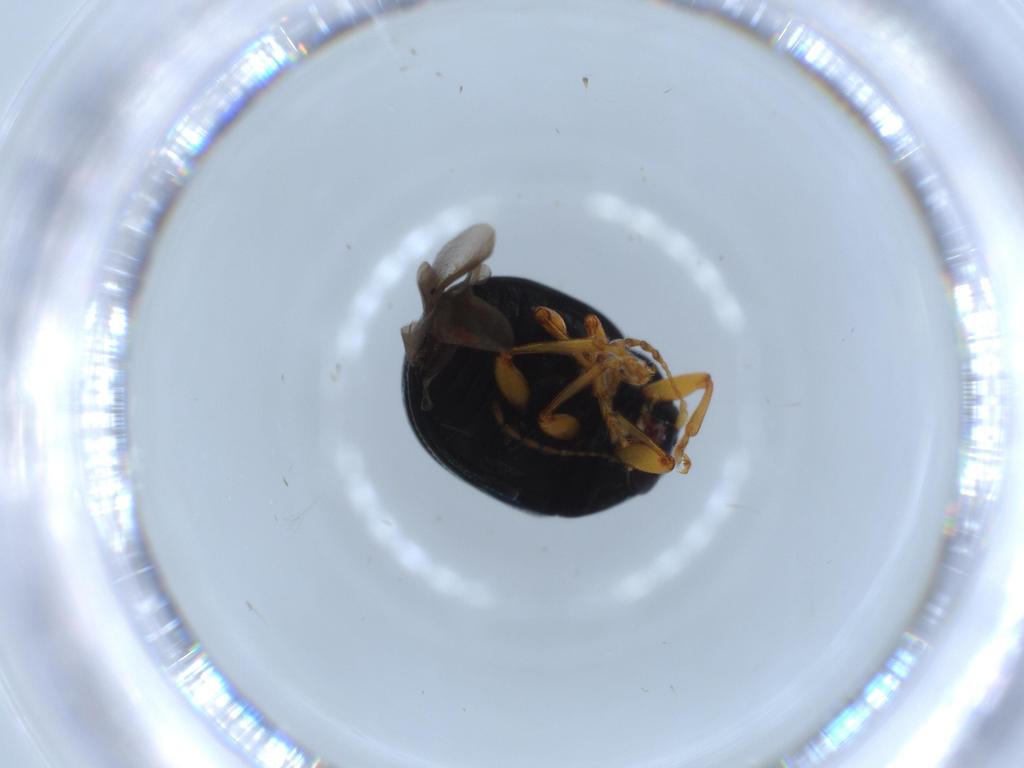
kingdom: Animalia
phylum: Arthropoda
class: Insecta
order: Coleoptera
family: Chrysomelidae
